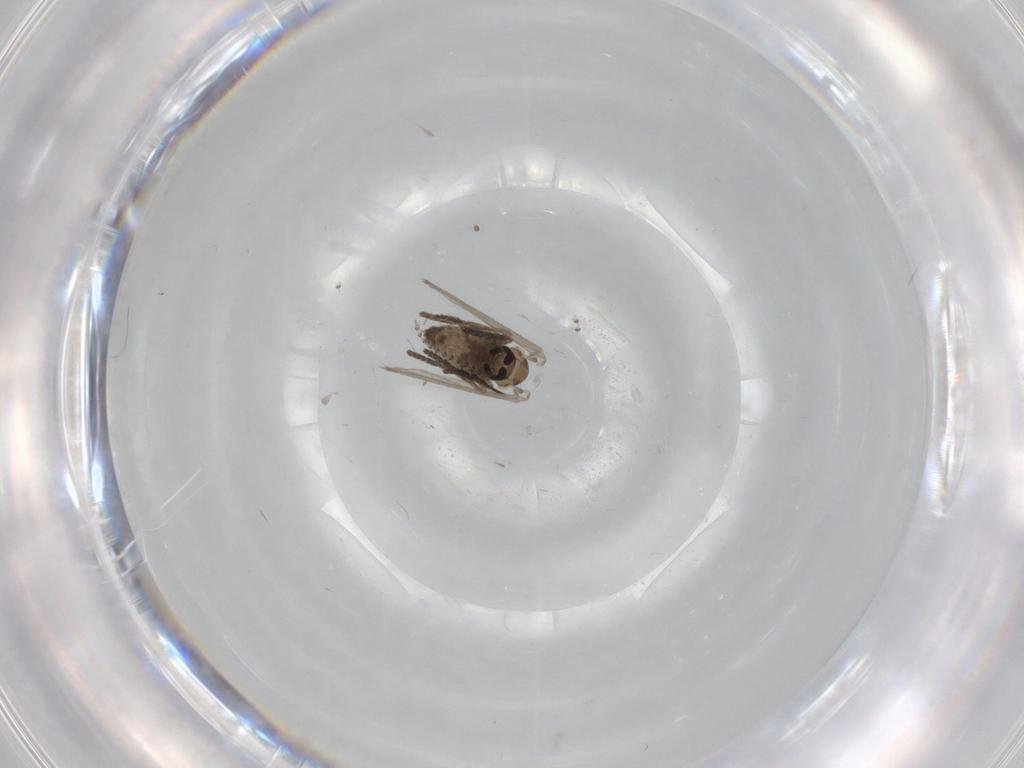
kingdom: Animalia
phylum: Arthropoda
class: Insecta
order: Diptera
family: Psychodidae
